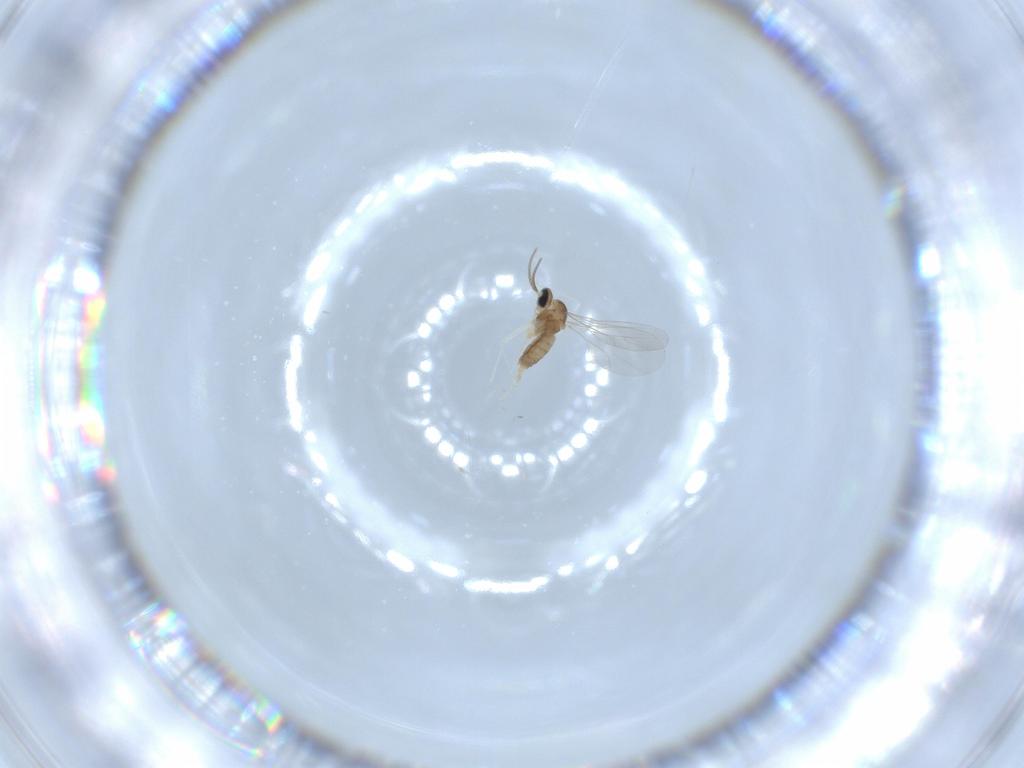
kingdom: Animalia
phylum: Arthropoda
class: Insecta
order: Diptera
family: Cecidomyiidae
